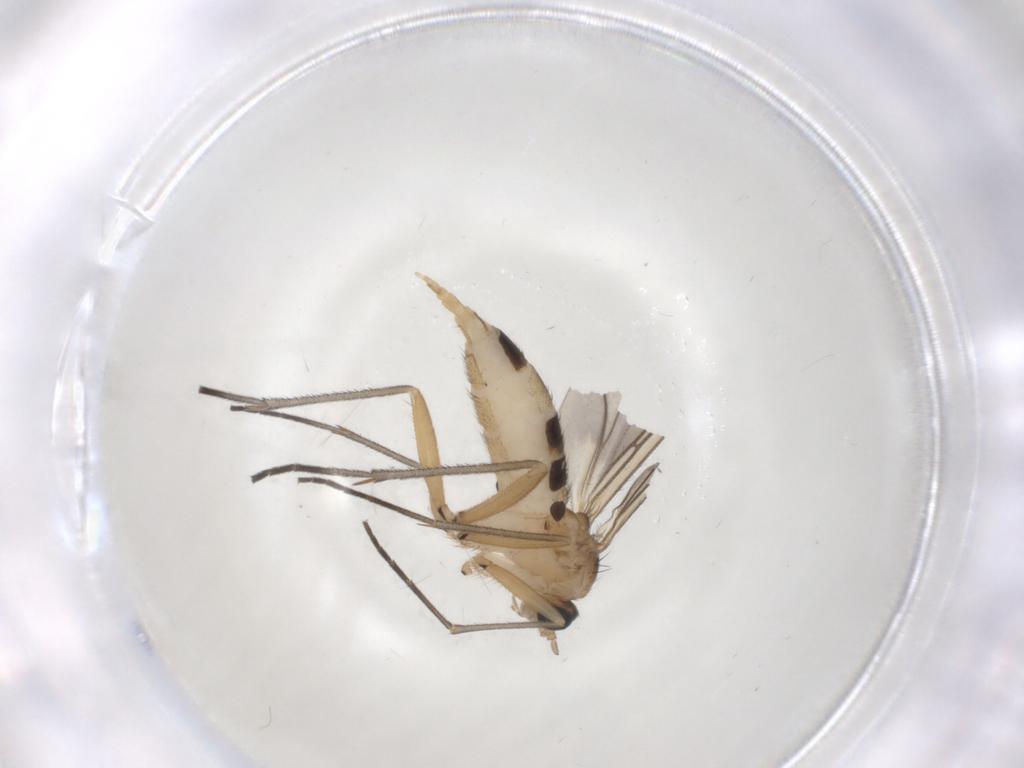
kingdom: Animalia
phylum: Arthropoda
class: Insecta
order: Diptera
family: Sciaridae
